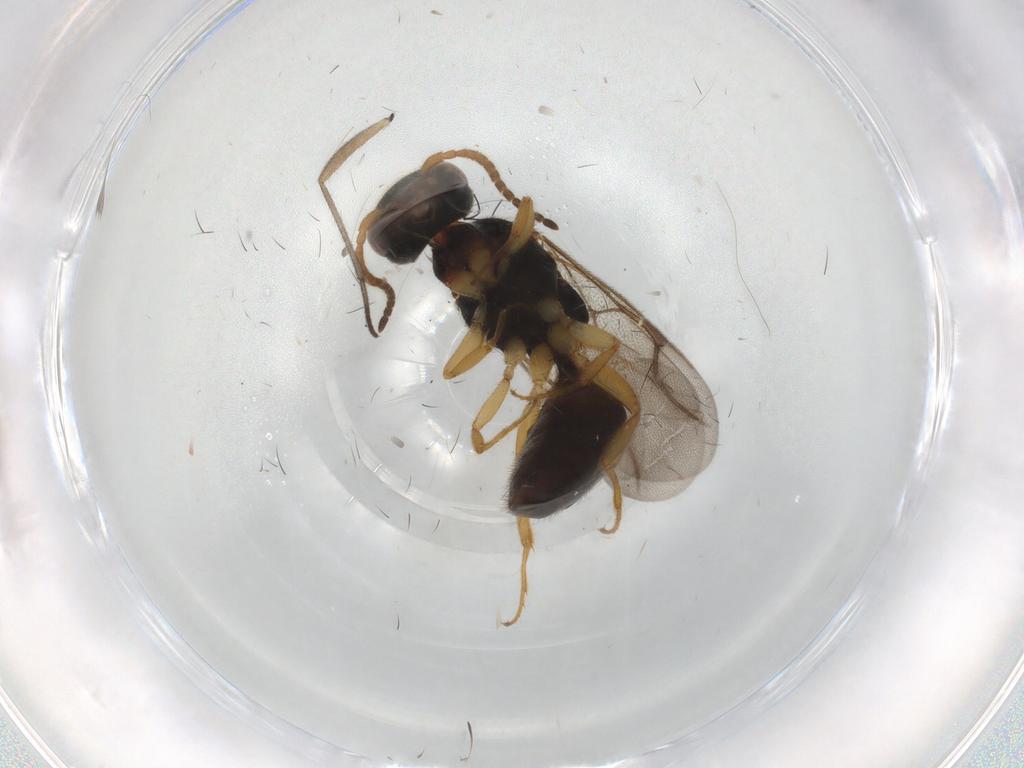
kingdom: Animalia
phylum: Arthropoda
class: Insecta
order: Hymenoptera
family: Bethylidae
